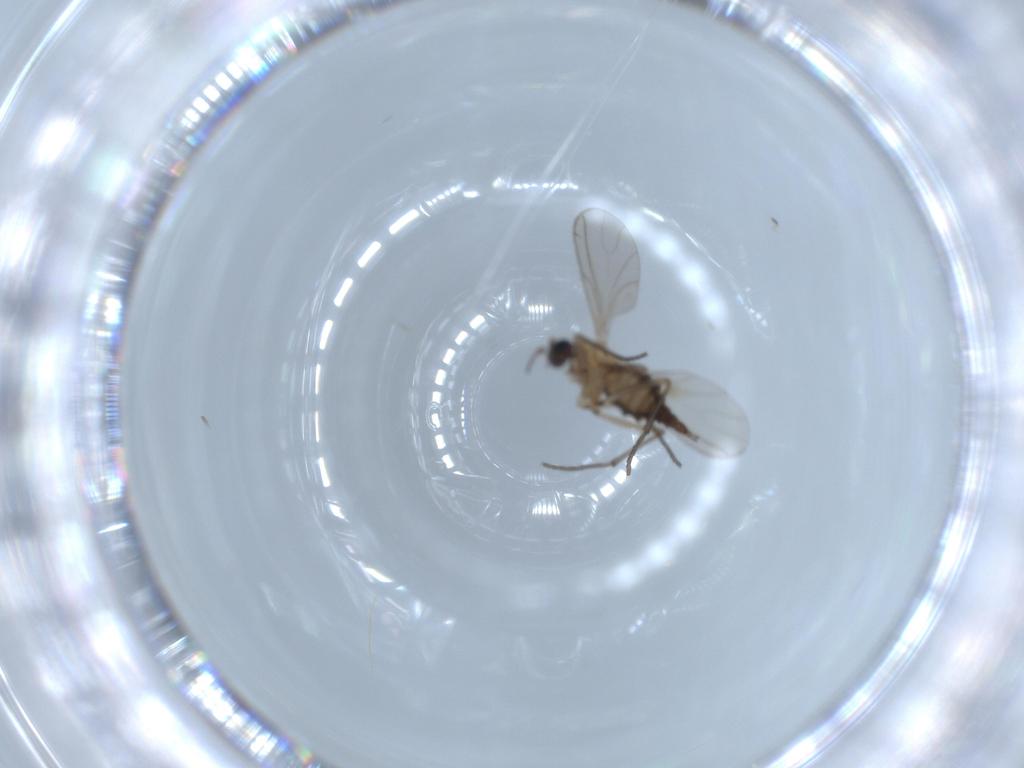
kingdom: Animalia
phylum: Arthropoda
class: Insecta
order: Diptera
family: Sciaridae
